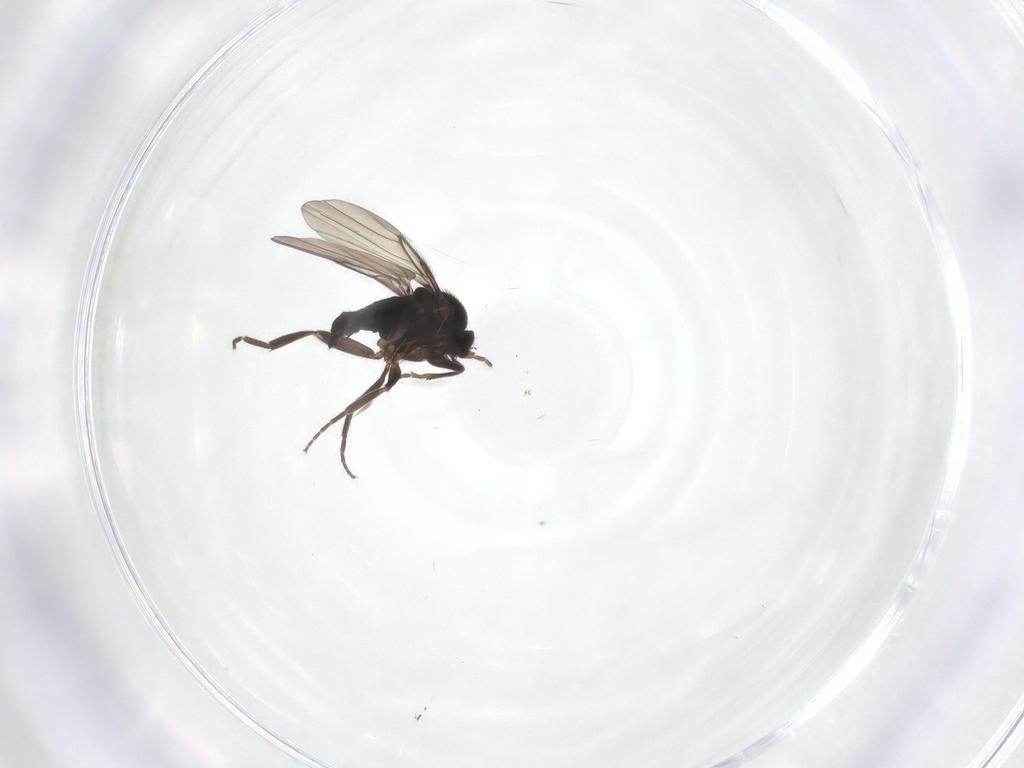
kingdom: Animalia
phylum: Arthropoda
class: Insecta
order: Diptera
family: Phoridae
